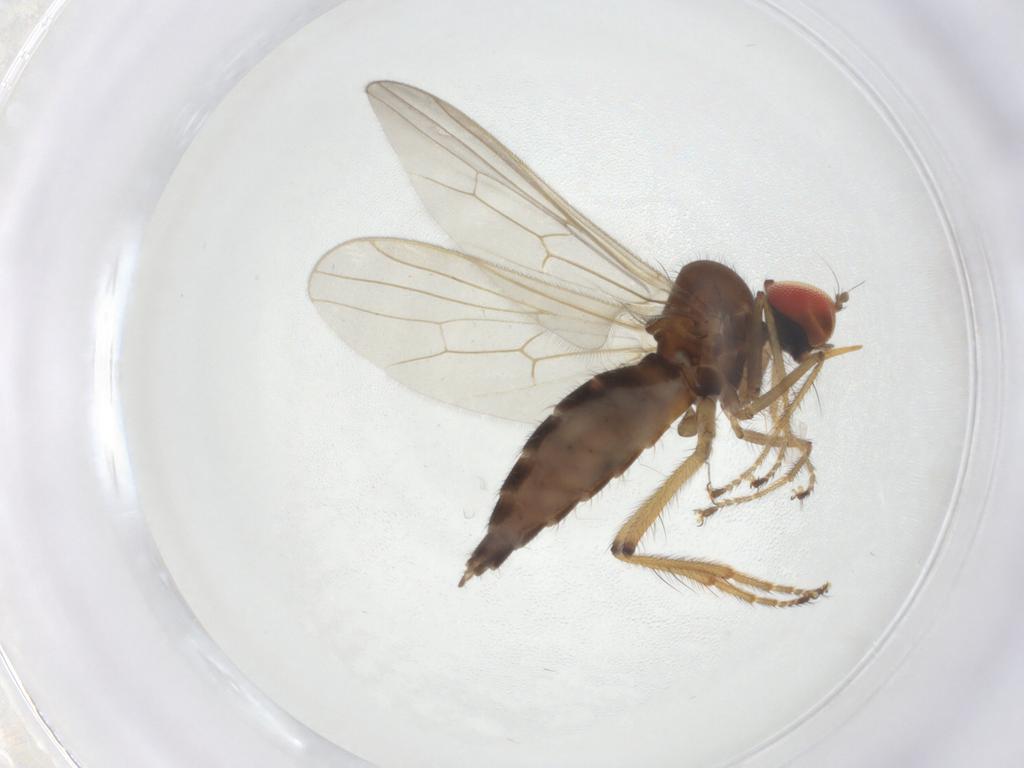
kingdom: Animalia
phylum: Arthropoda
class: Insecta
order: Diptera
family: Chironomidae
